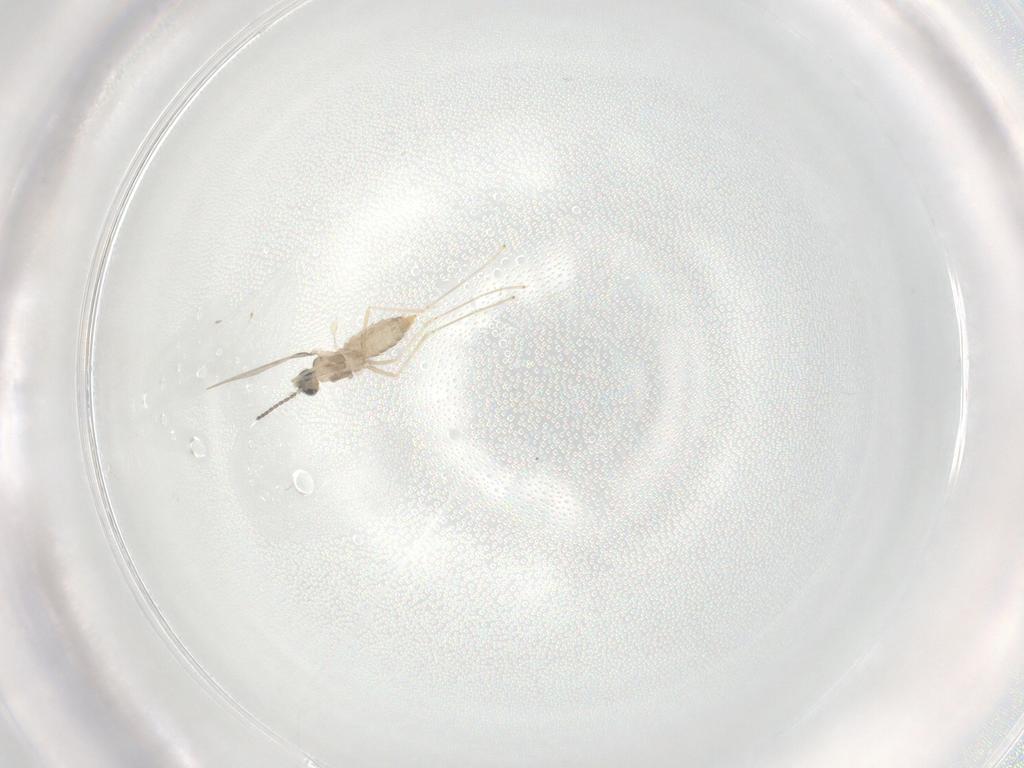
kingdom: Animalia
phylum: Arthropoda
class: Insecta
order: Diptera
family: Cecidomyiidae
